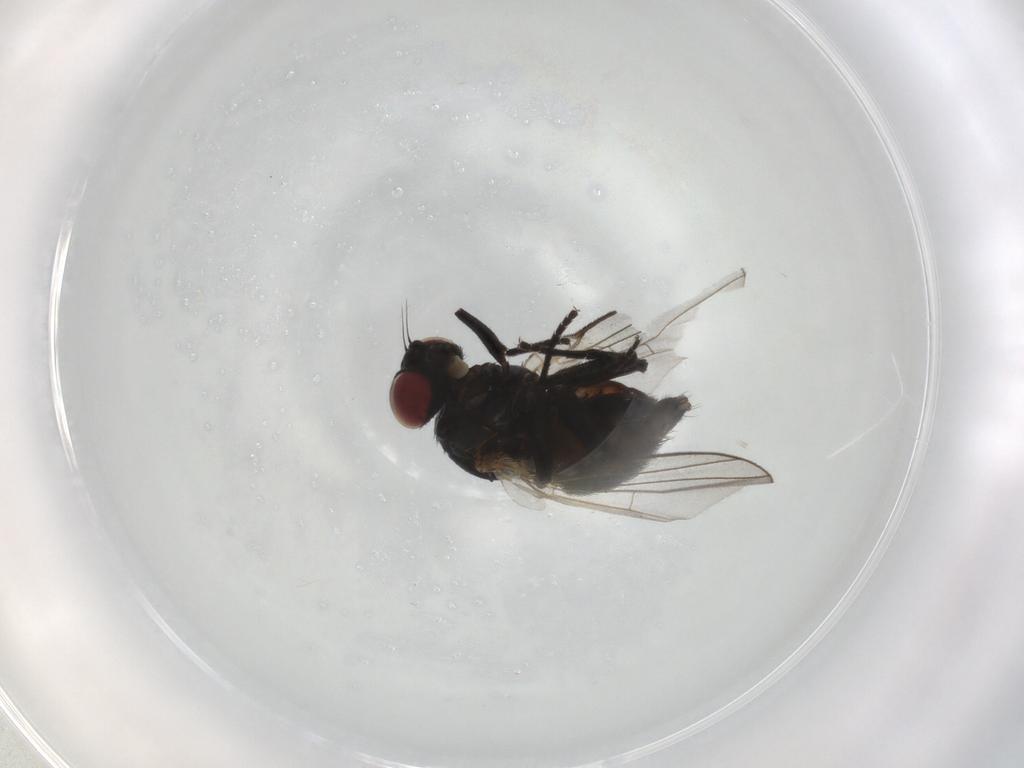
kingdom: Animalia
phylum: Arthropoda
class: Insecta
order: Diptera
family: Agromyzidae
